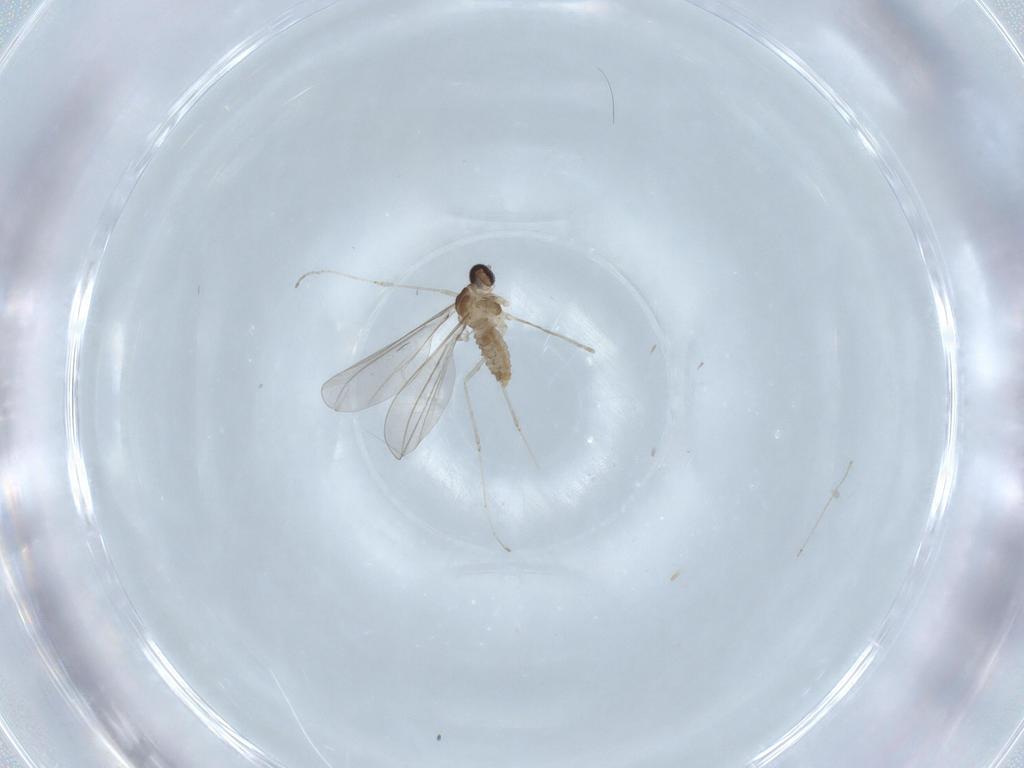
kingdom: Animalia
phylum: Arthropoda
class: Insecta
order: Diptera
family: Cecidomyiidae
